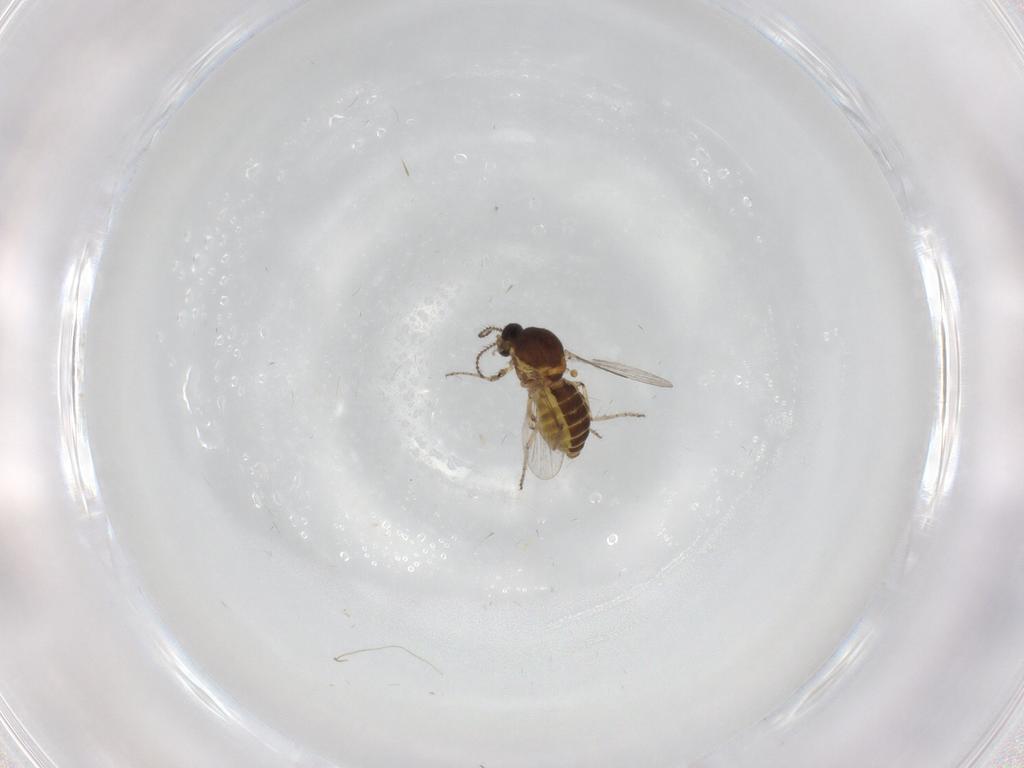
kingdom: Animalia
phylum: Arthropoda
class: Insecta
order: Diptera
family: Ceratopogonidae
